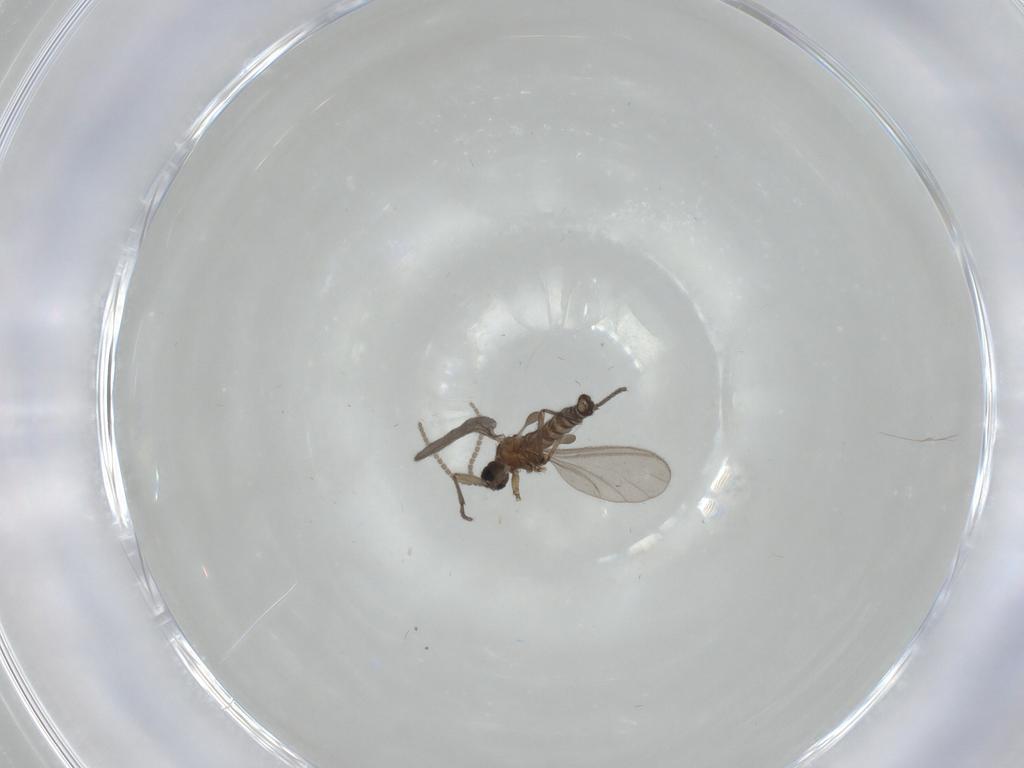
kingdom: Animalia
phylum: Arthropoda
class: Insecta
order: Diptera
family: Sciaridae
